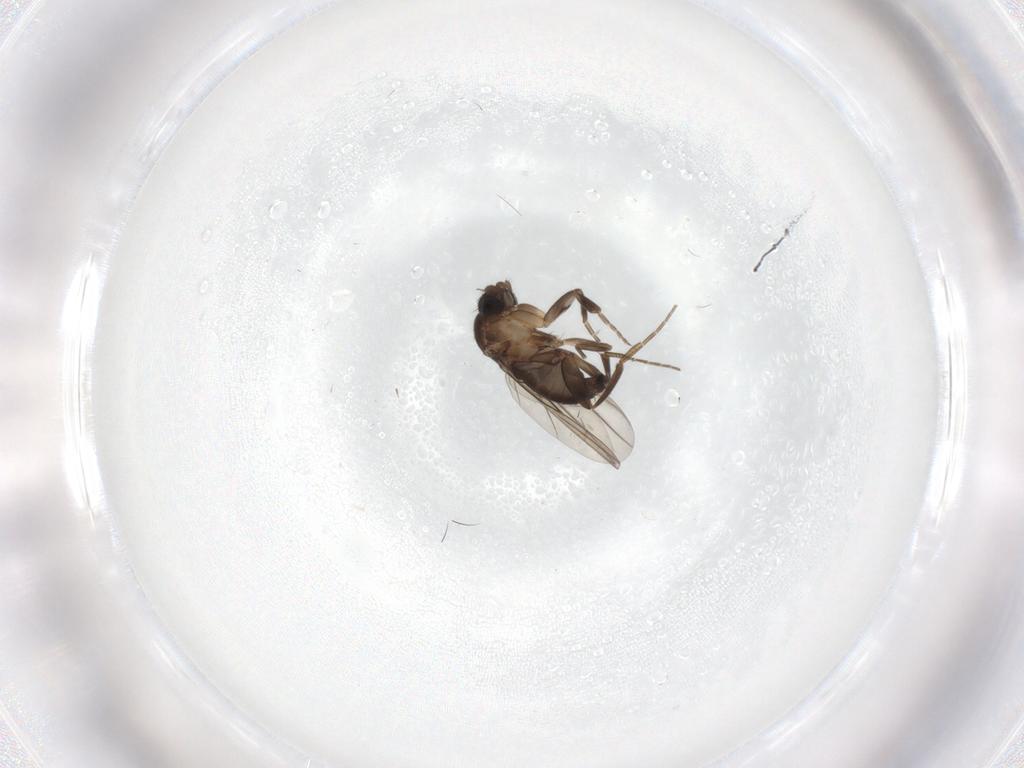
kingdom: Animalia
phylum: Arthropoda
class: Insecta
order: Diptera
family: Phoridae
